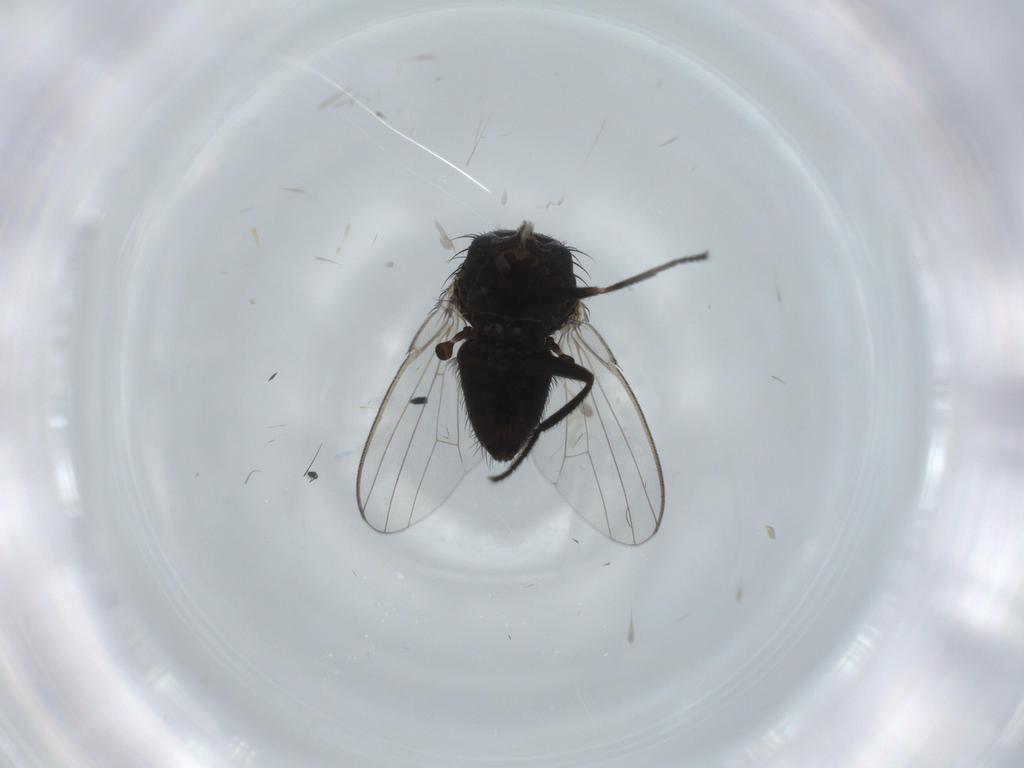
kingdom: Animalia
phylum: Arthropoda
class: Insecta
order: Diptera
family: Milichiidae
